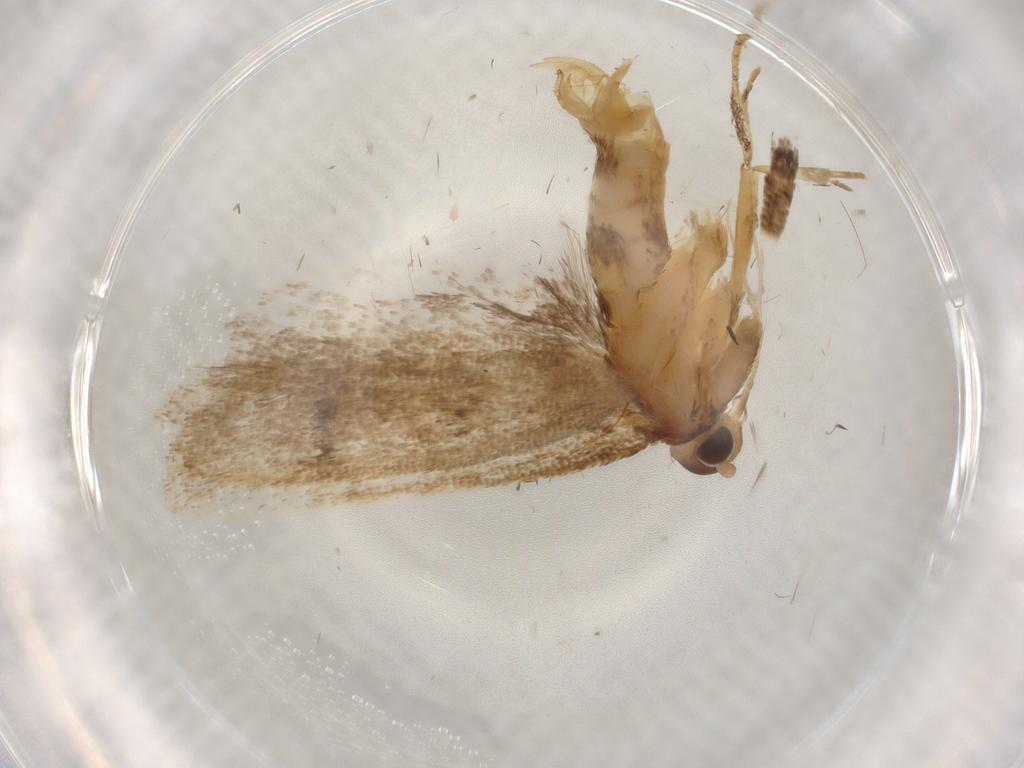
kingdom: Animalia
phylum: Arthropoda
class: Insecta
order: Lepidoptera
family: Lecithoceridae
